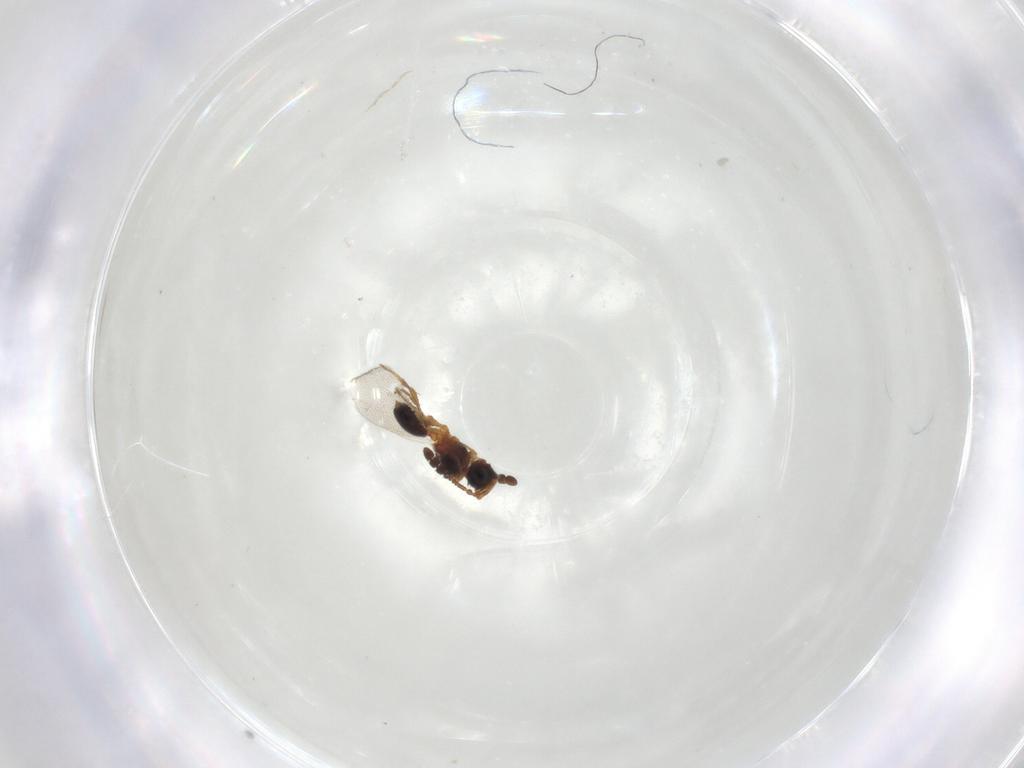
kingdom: Animalia
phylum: Arthropoda
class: Insecta
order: Hymenoptera
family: Diapriidae
